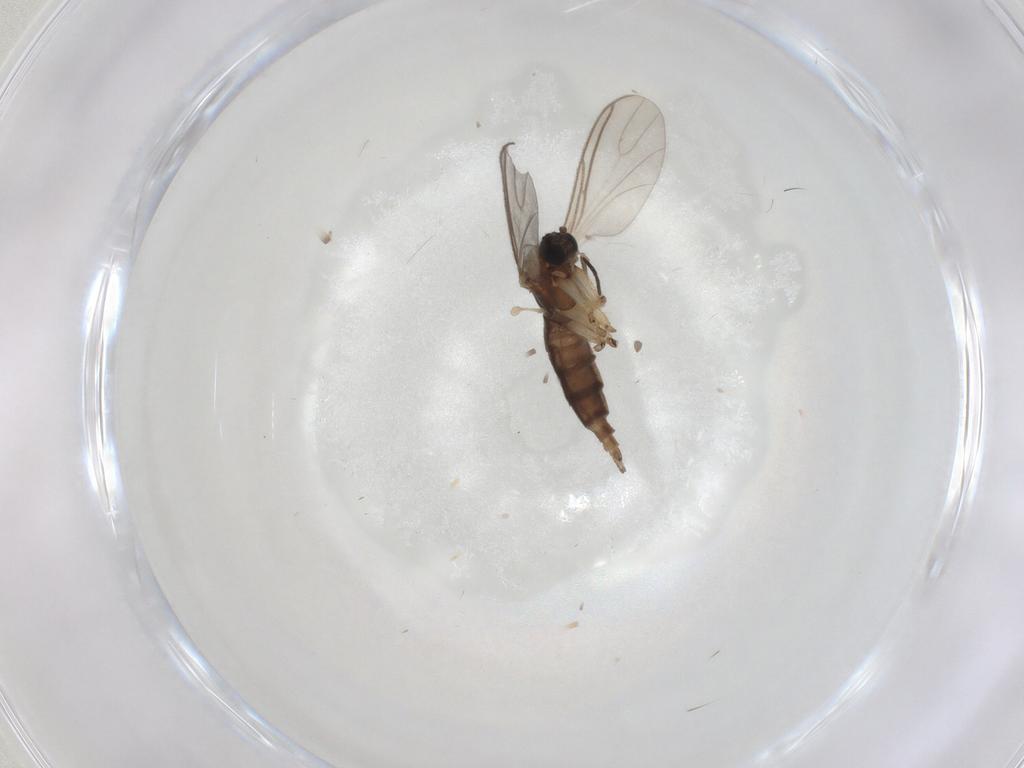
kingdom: Animalia
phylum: Arthropoda
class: Insecta
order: Diptera
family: Sciaridae
